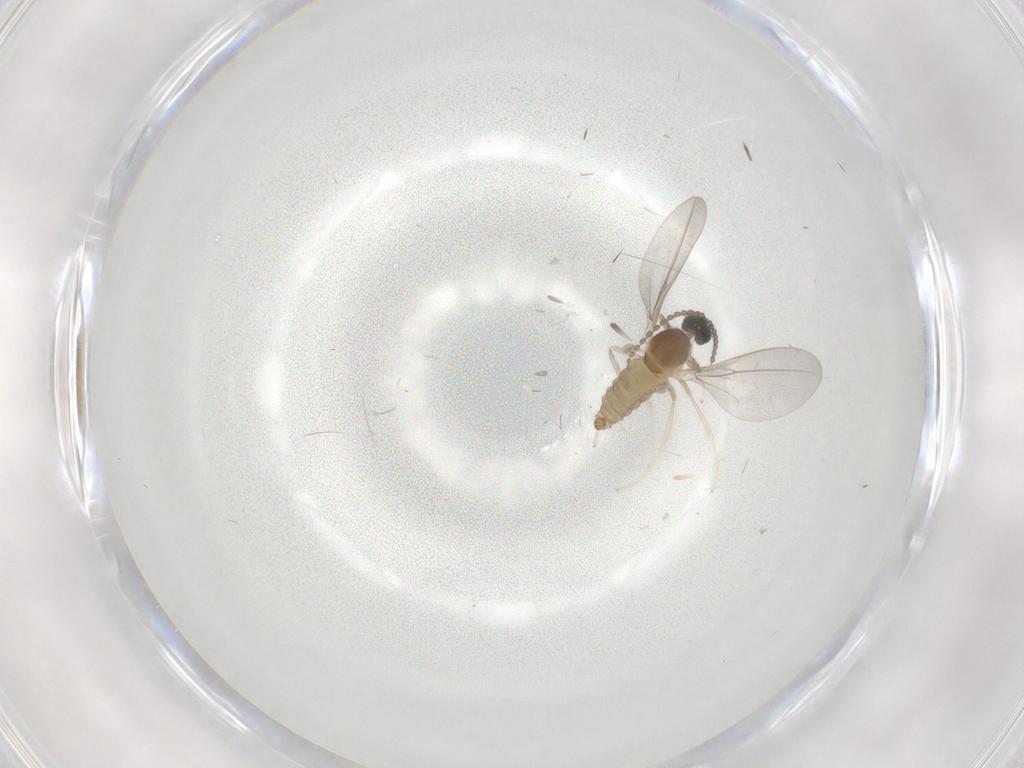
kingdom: Animalia
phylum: Arthropoda
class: Insecta
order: Diptera
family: Cecidomyiidae
